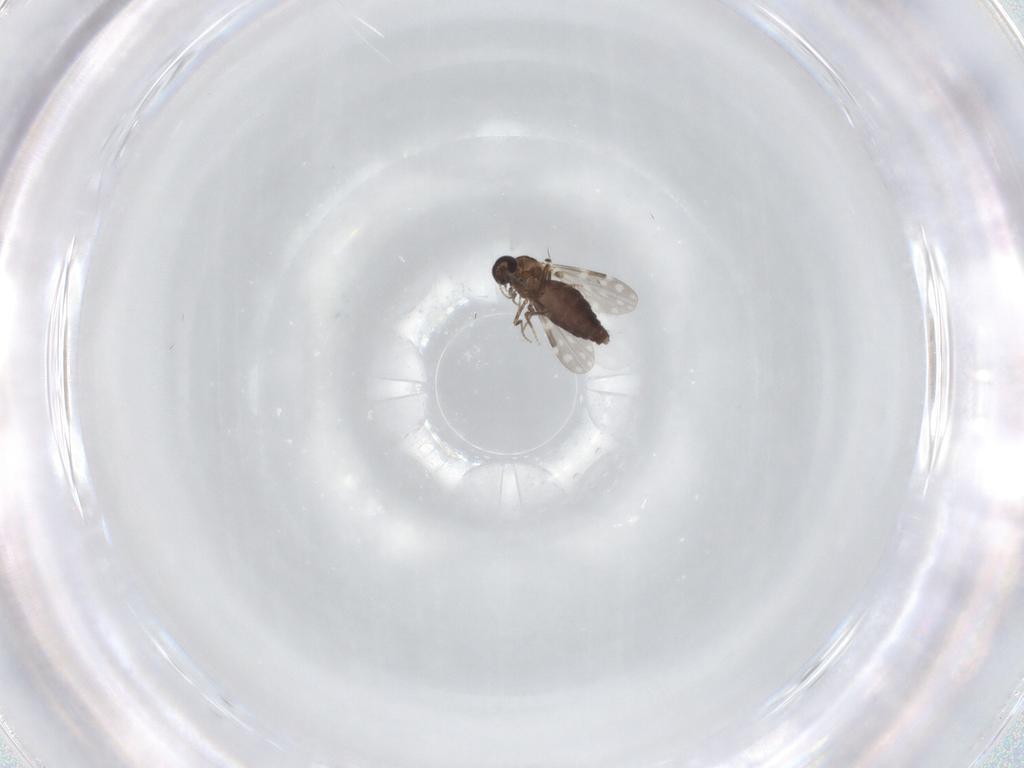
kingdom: Animalia
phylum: Arthropoda
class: Insecta
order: Diptera
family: Ceratopogonidae
